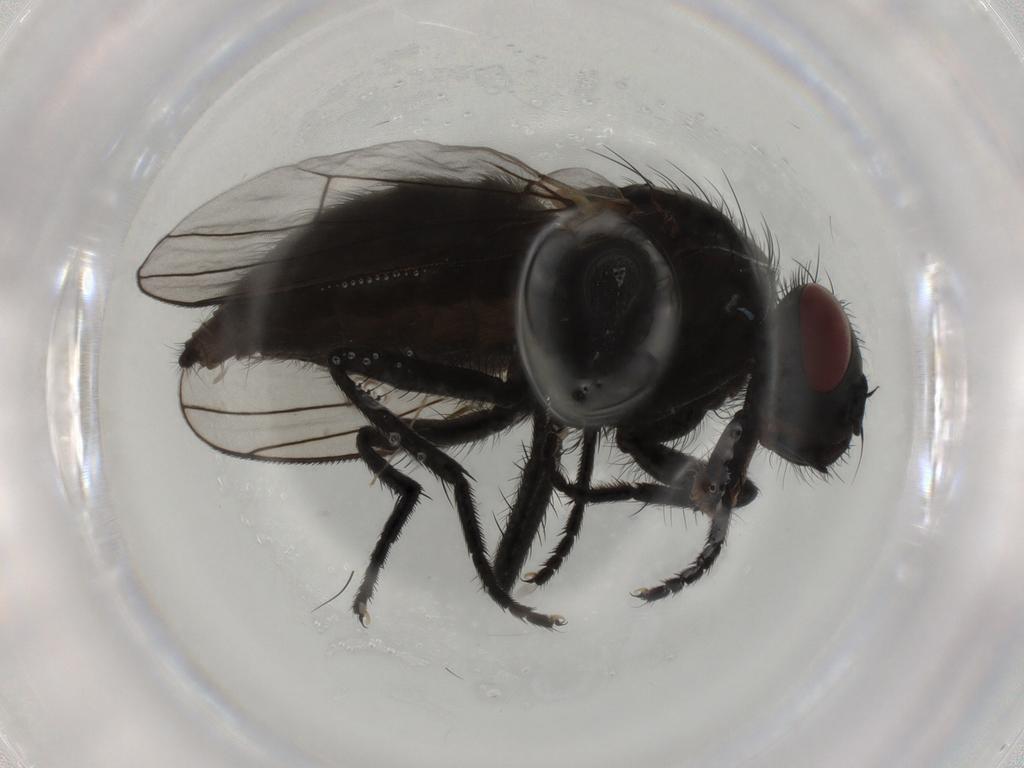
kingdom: Animalia
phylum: Arthropoda
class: Insecta
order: Diptera
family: Muscidae
